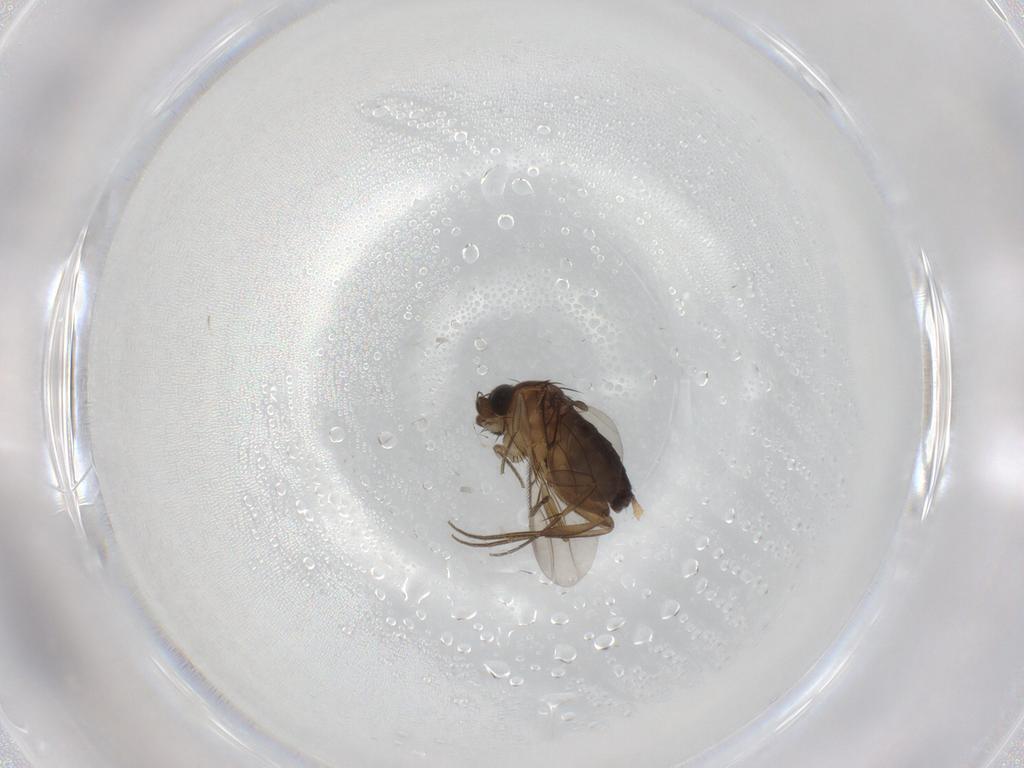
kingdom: Animalia
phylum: Arthropoda
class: Insecta
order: Diptera
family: Phoridae
